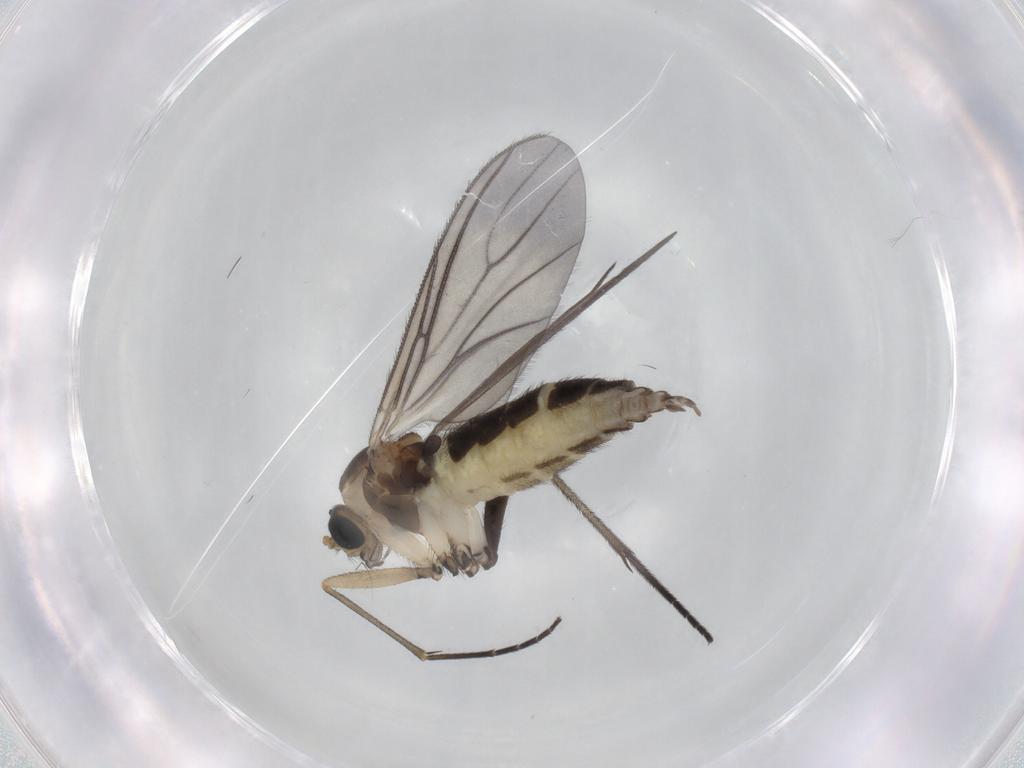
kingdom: Animalia
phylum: Arthropoda
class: Insecta
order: Diptera
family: Sciaridae
